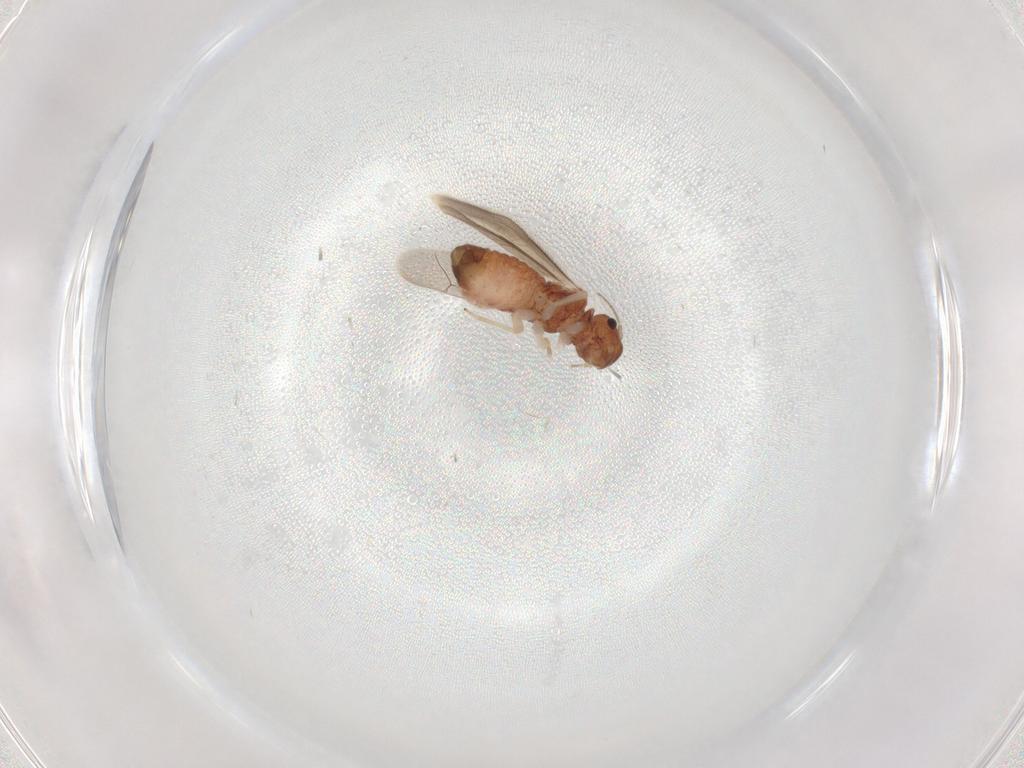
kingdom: Animalia
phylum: Arthropoda
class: Insecta
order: Psocodea
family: Archipsocidae
